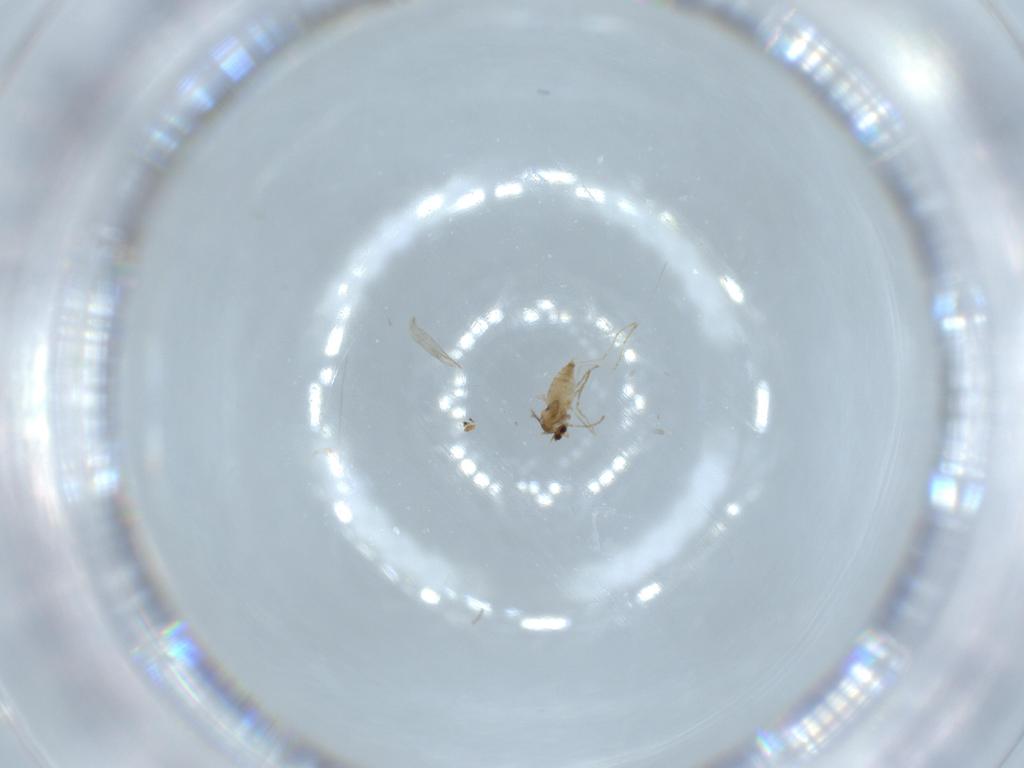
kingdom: Animalia
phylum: Arthropoda
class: Insecta
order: Diptera
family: Cecidomyiidae
